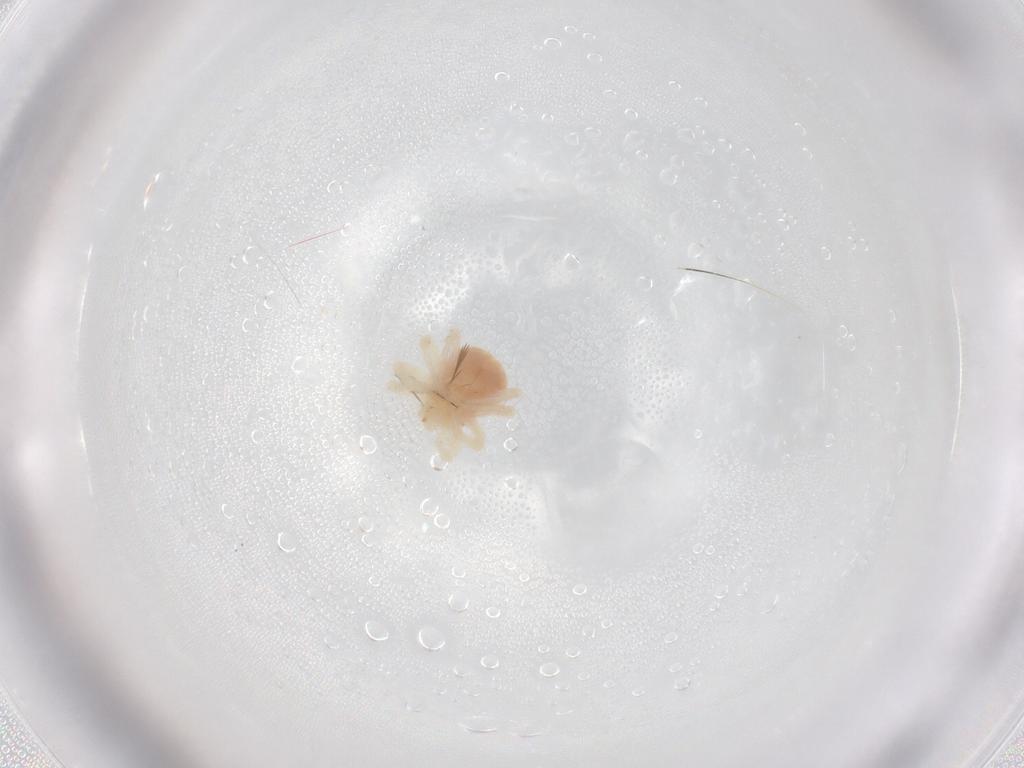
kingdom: Animalia
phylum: Arthropoda
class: Arachnida
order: Trombidiformes
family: Anystidae
